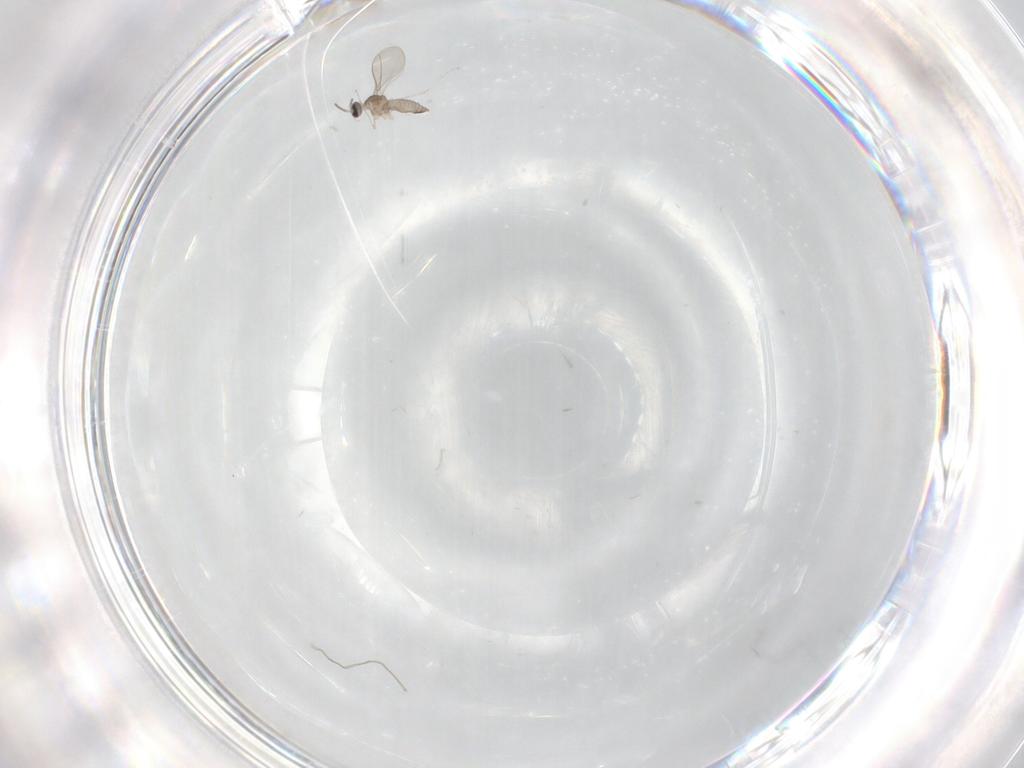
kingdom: Animalia
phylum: Arthropoda
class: Insecta
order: Diptera
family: Cecidomyiidae
